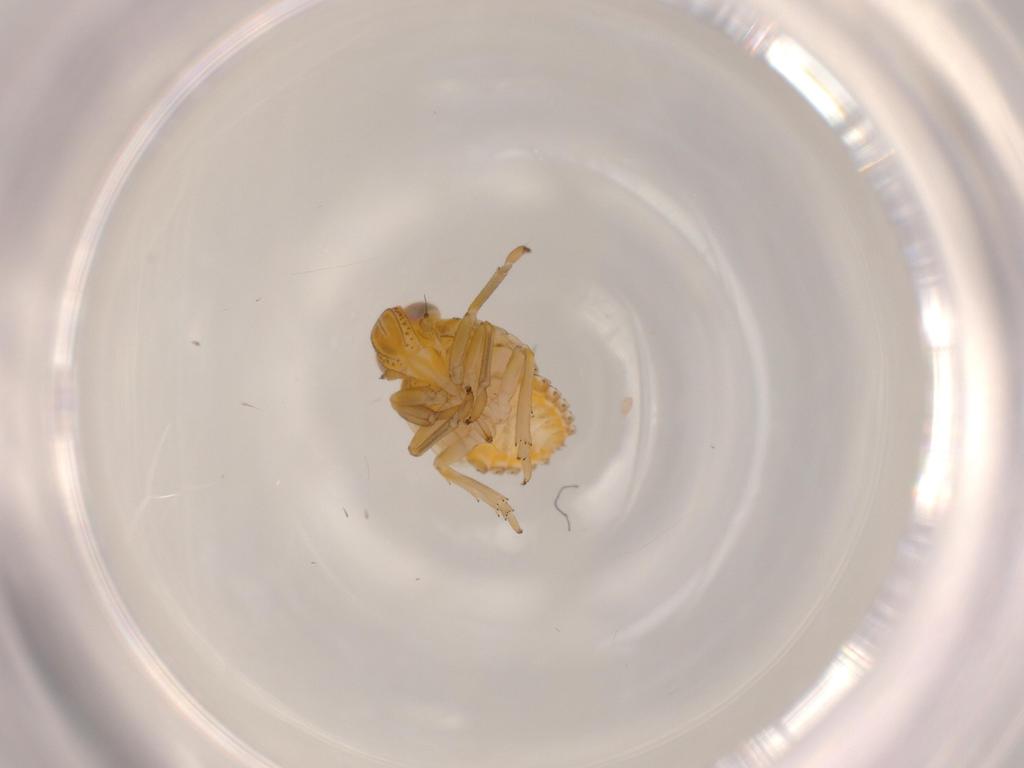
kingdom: Animalia
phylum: Arthropoda
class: Insecta
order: Hemiptera
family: Issidae
